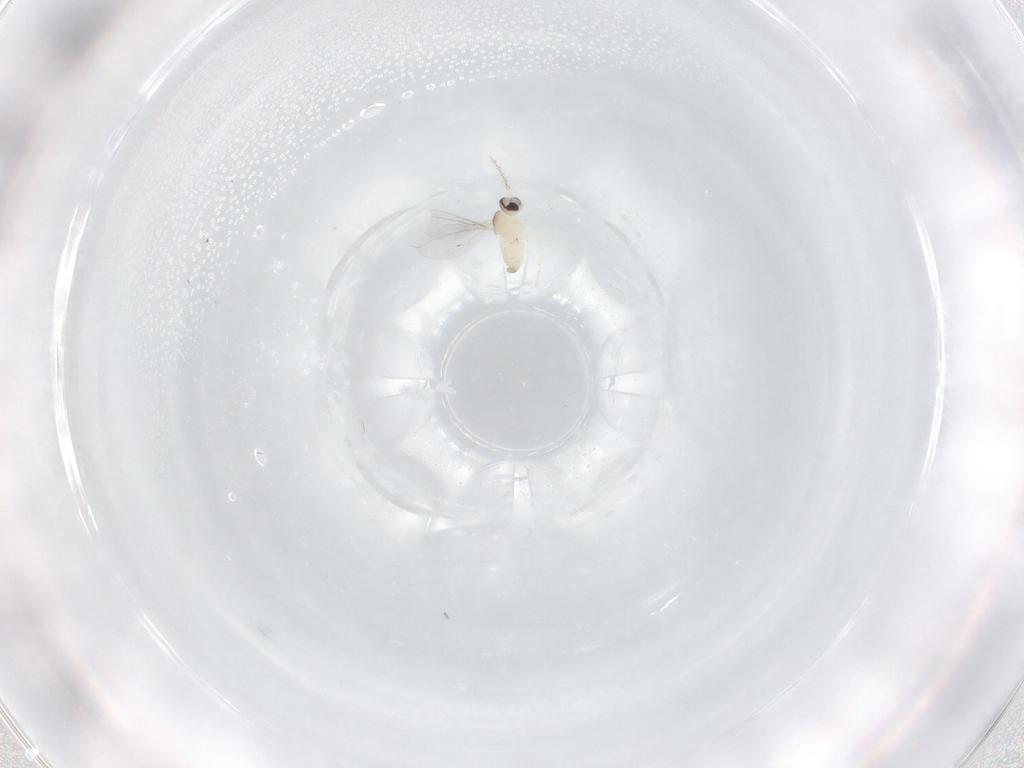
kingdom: Animalia
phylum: Arthropoda
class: Insecta
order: Diptera
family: Cecidomyiidae
